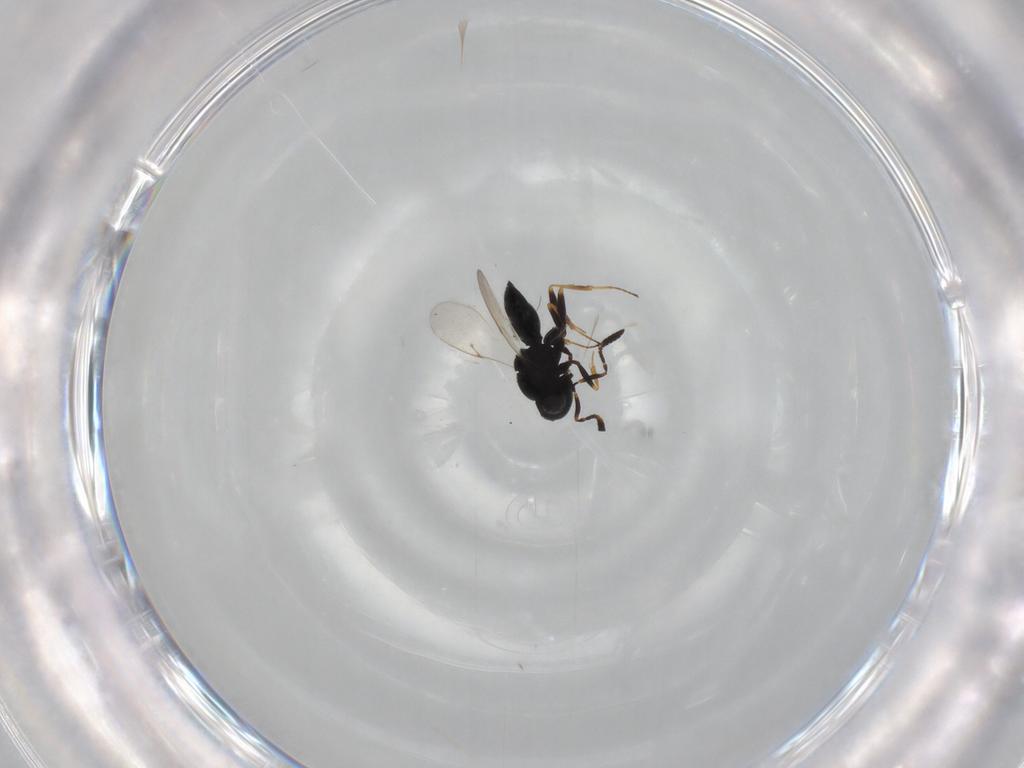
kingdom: Animalia
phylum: Arthropoda
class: Insecta
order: Hymenoptera
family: Scelionidae
